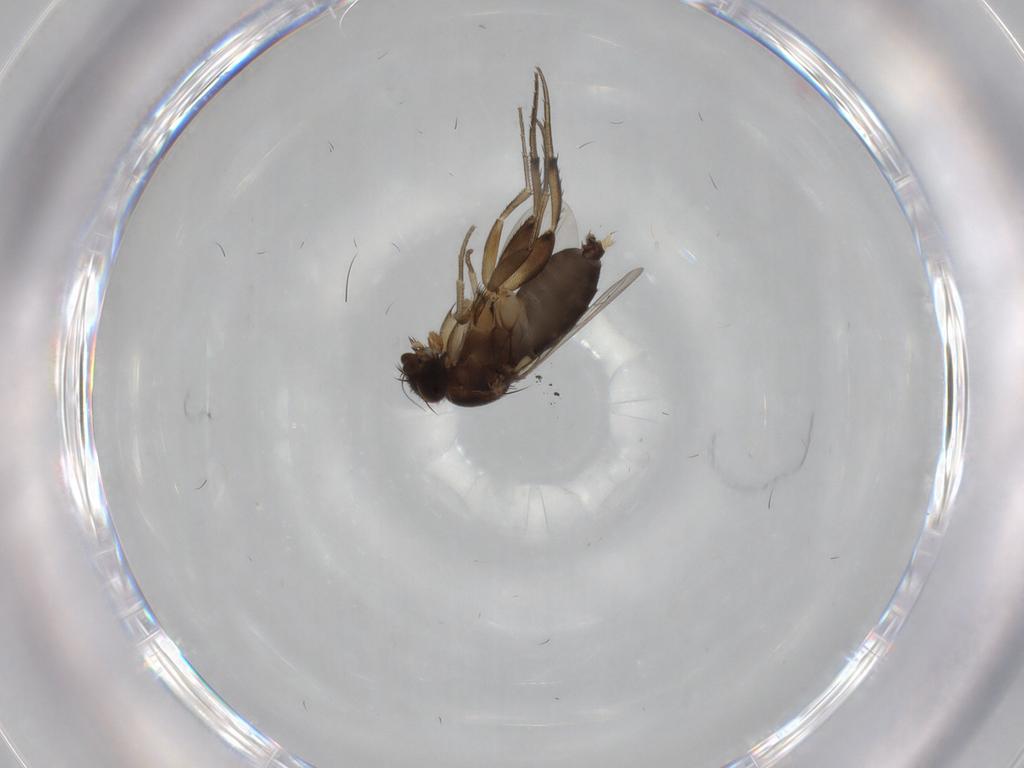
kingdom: Animalia
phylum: Arthropoda
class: Insecta
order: Diptera
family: Phoridae
